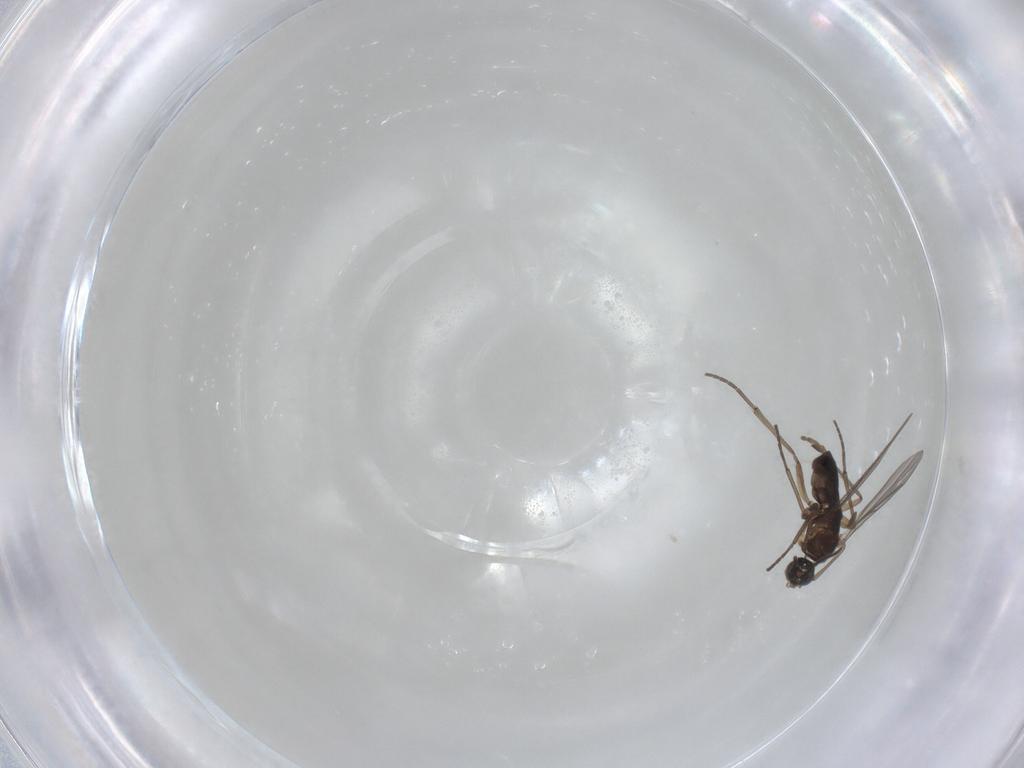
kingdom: Animalia
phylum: Arthropoda
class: Insecta
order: Diptera
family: Sciaridae
